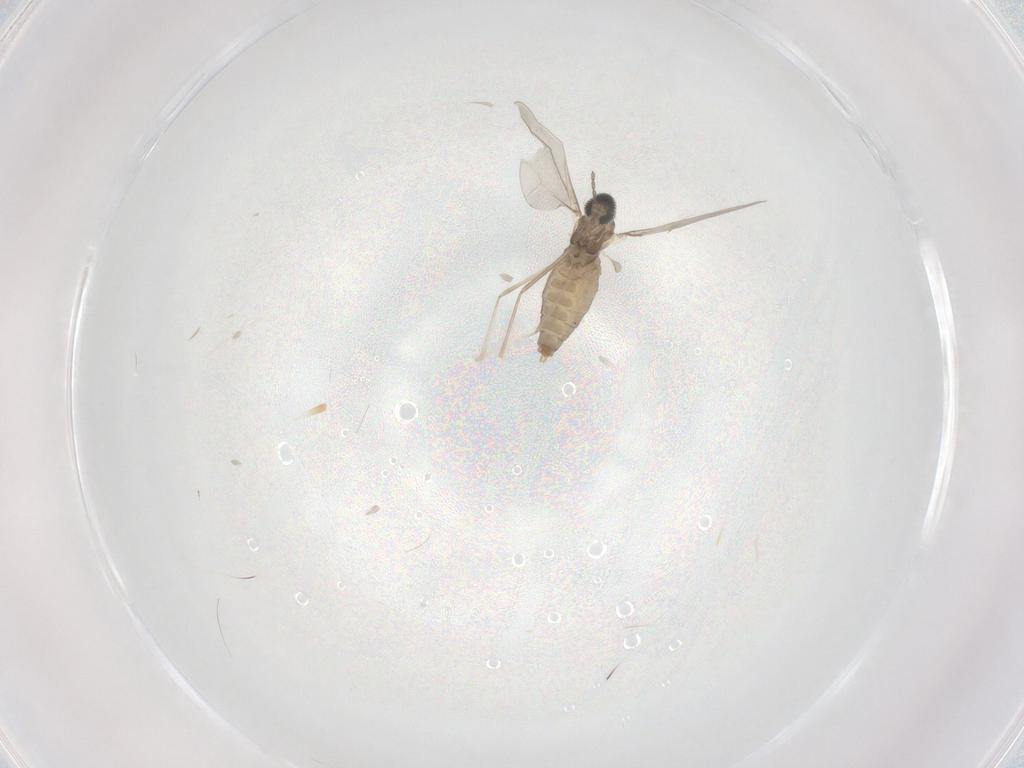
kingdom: Animalia
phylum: Arthropoda
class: Insecta
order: Diptera
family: Cecidomyiidae
